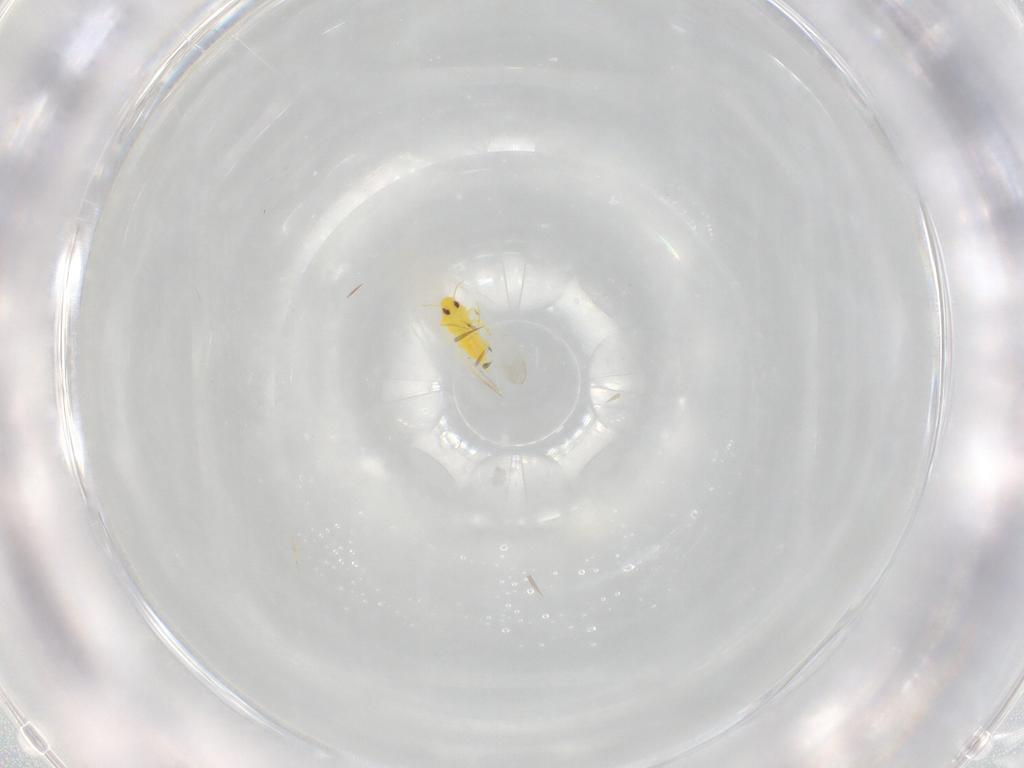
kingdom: Animalia
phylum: Arthropoda
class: Insecta
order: Hemiptera
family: Aleyrodidae
